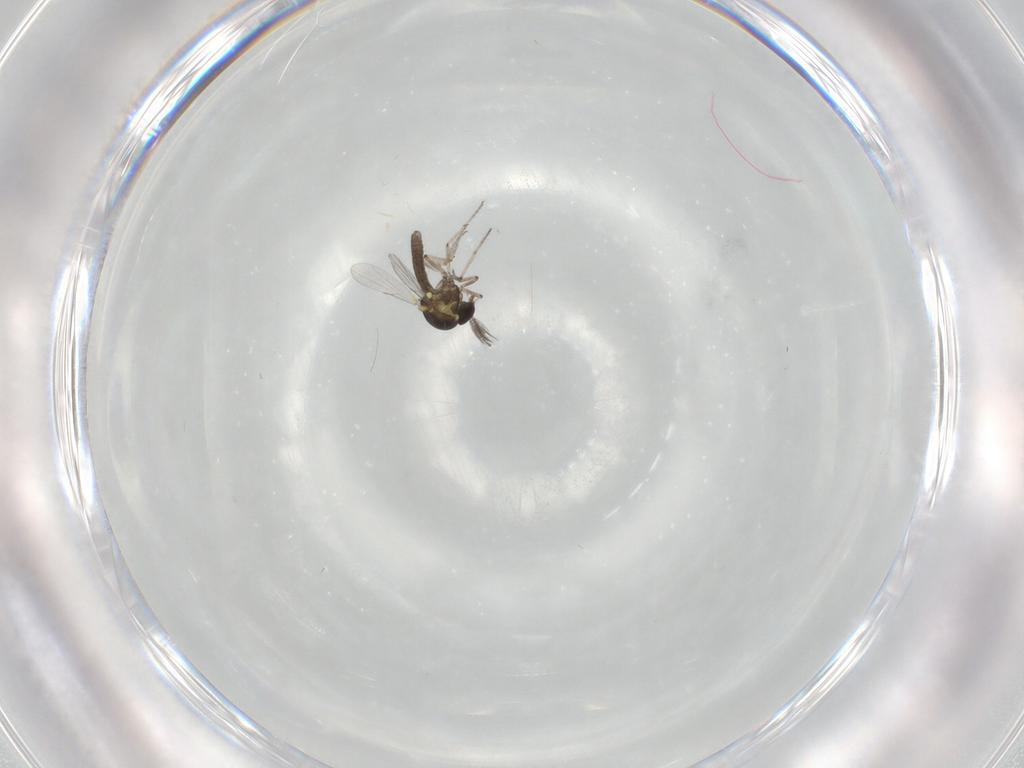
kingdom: Animalia
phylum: Arthropoda
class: Insecta
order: Diptera
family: Ceratopogonidae
